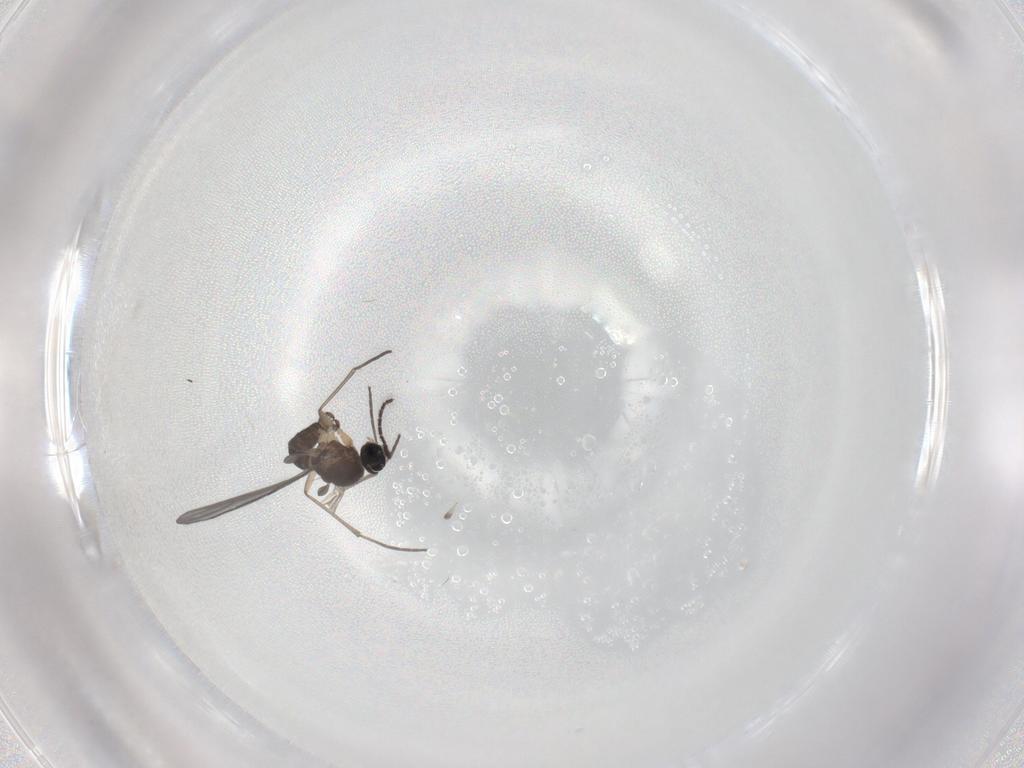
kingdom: Animalia
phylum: Arthropoda
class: Insecta
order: Diptera
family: Sciaridae
